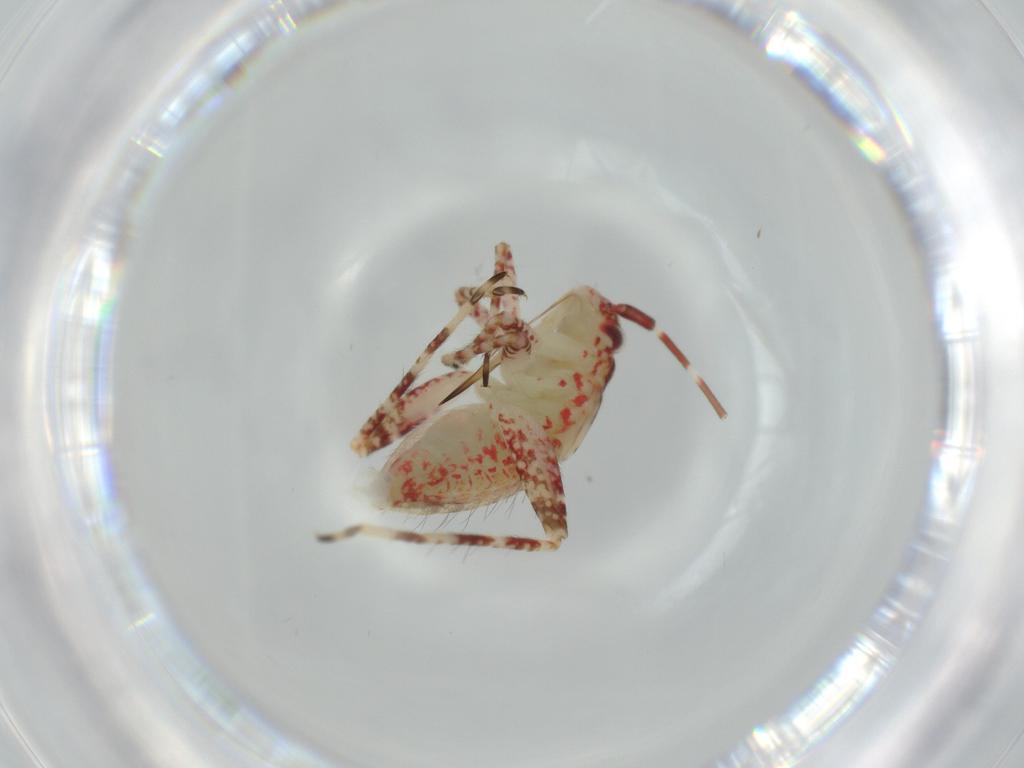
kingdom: Animalia
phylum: Arthropoda
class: Insecta
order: Hemiptera
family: Miridae
